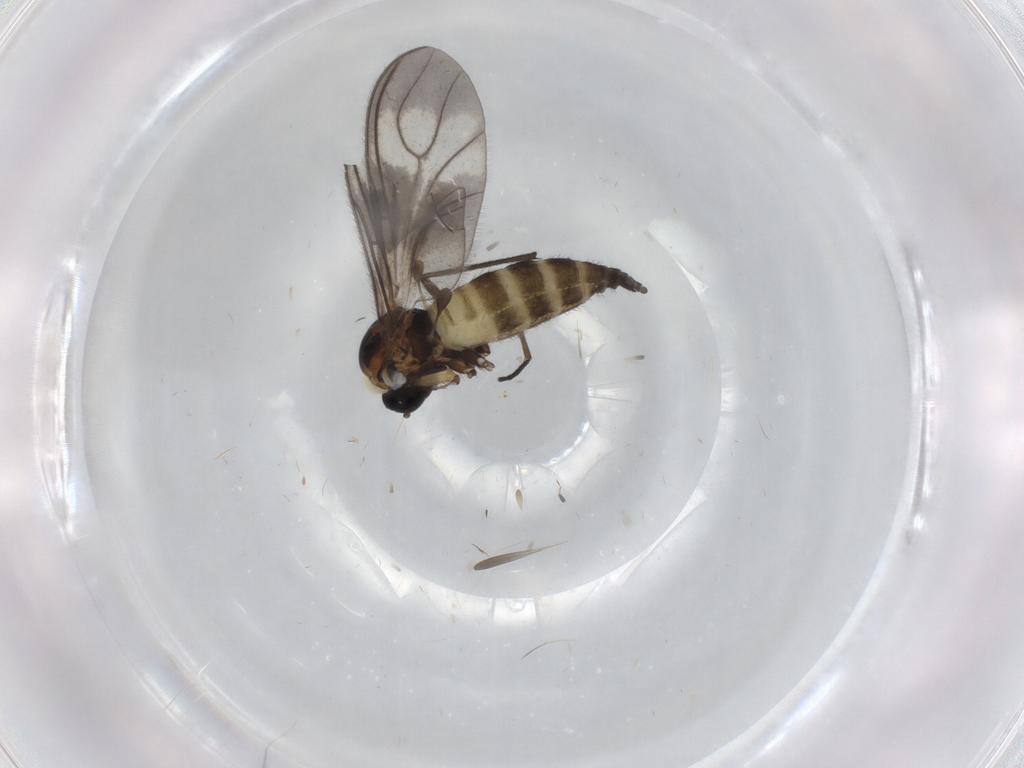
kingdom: Animalia
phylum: Arthropoda
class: Insecta
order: Diptera
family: Sciaridae
